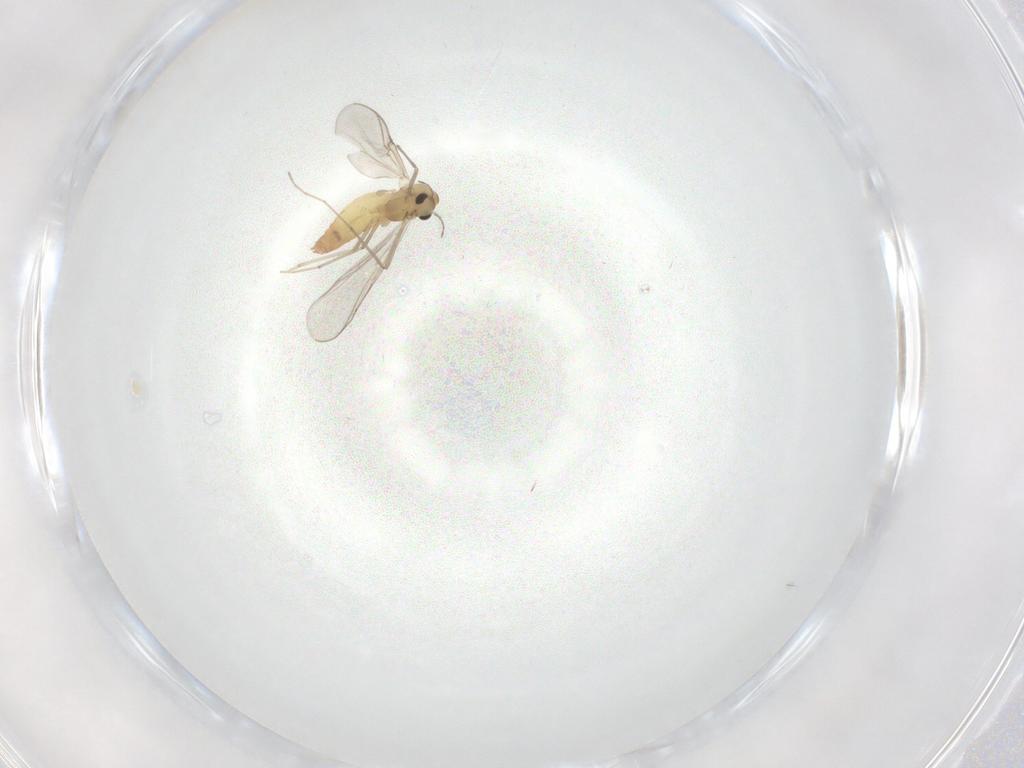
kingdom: Animalia
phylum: Arthropoda
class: Insecta
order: Diptera
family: Chironomidae
